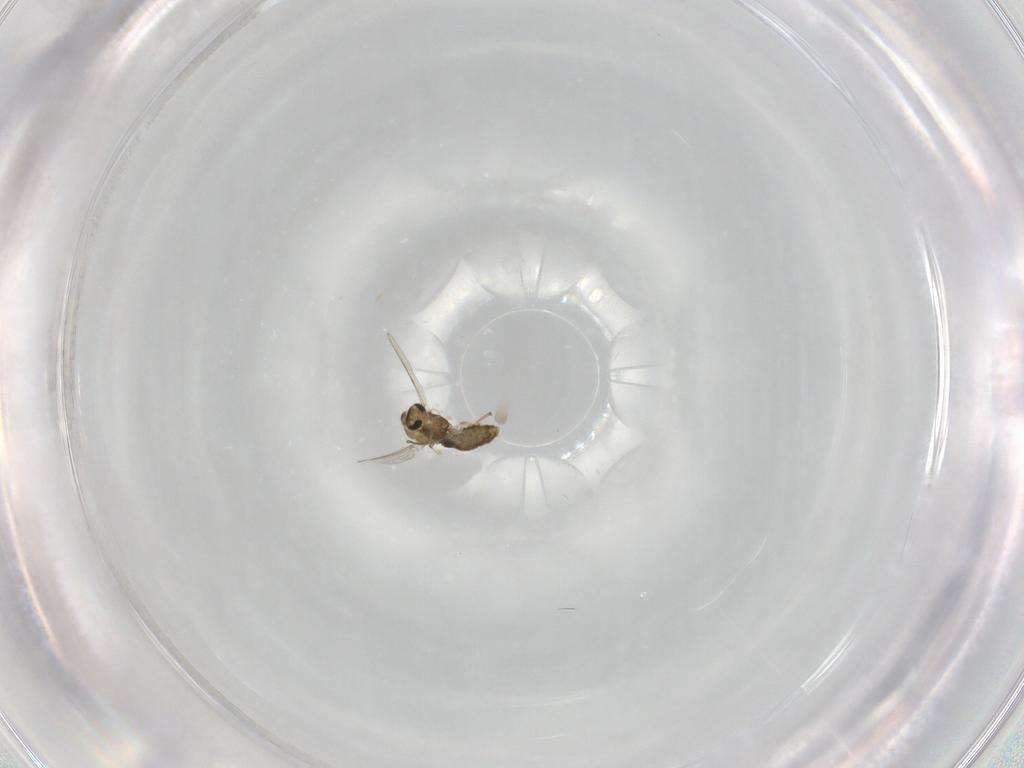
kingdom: Animalia
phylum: Arthropoda
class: Insecta
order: Diptera
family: Chironomidae
